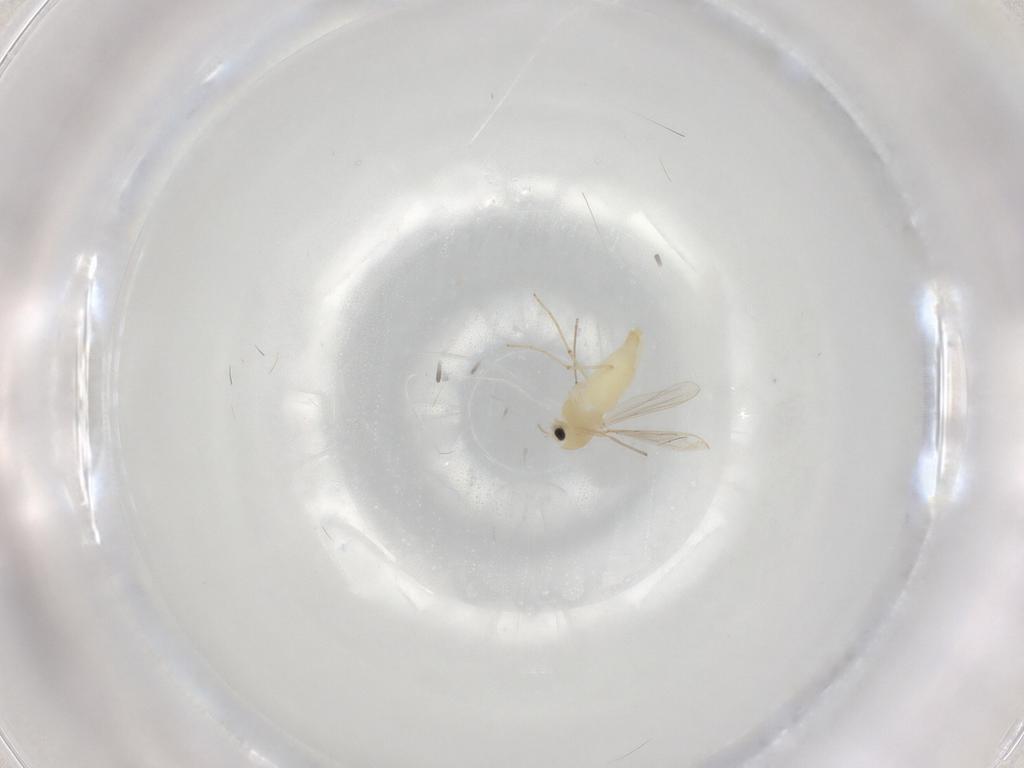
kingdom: Animalia
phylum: Arthropoda
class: Insecta
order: Diptera
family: Chironomidae
